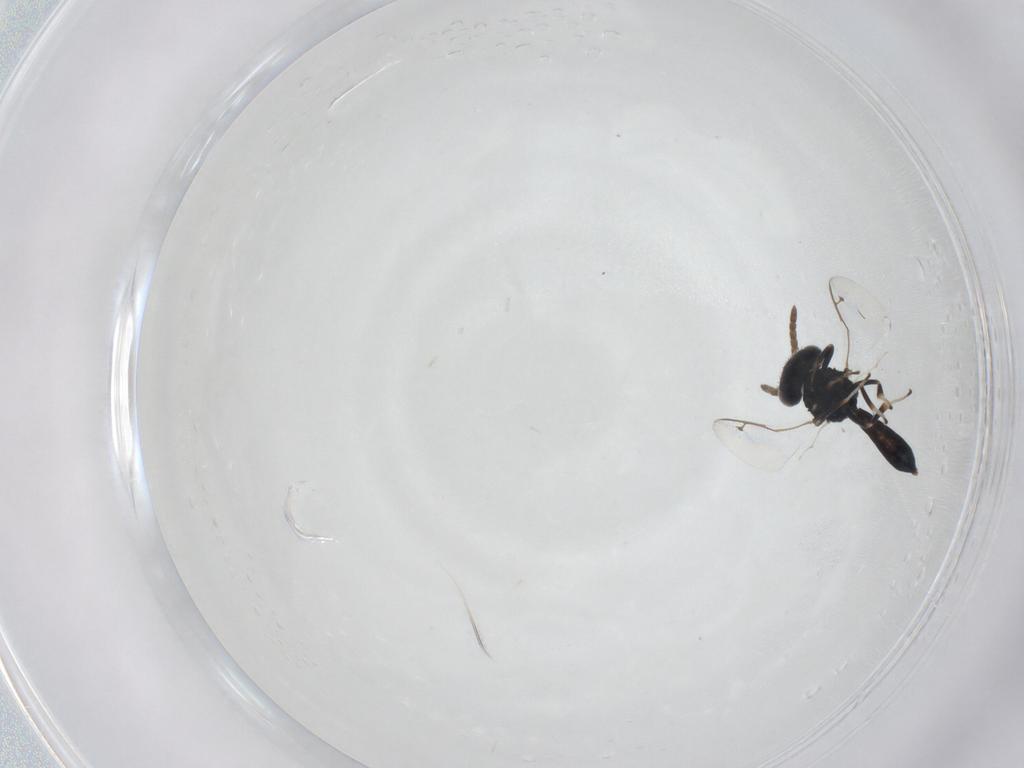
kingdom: Animalia
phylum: Arthropoda
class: Insecta
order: Hymenoptera
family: Pteromalidae
